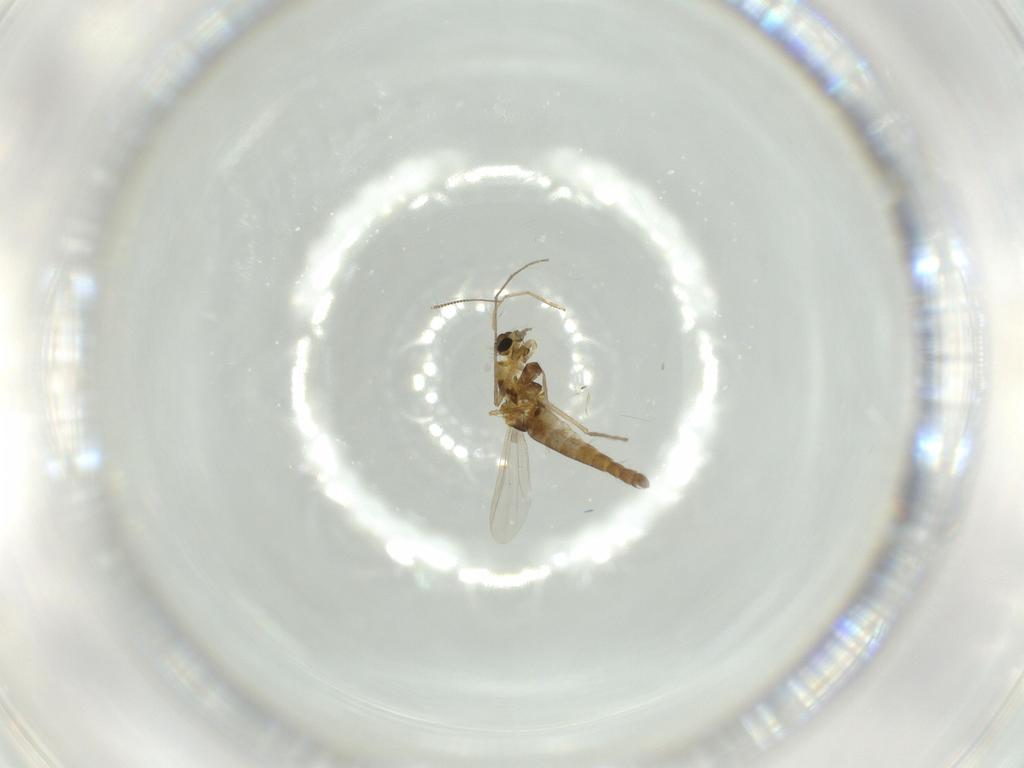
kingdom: Animalia
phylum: Arthropoda
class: Insecta
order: Diptera
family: Chironomidae
